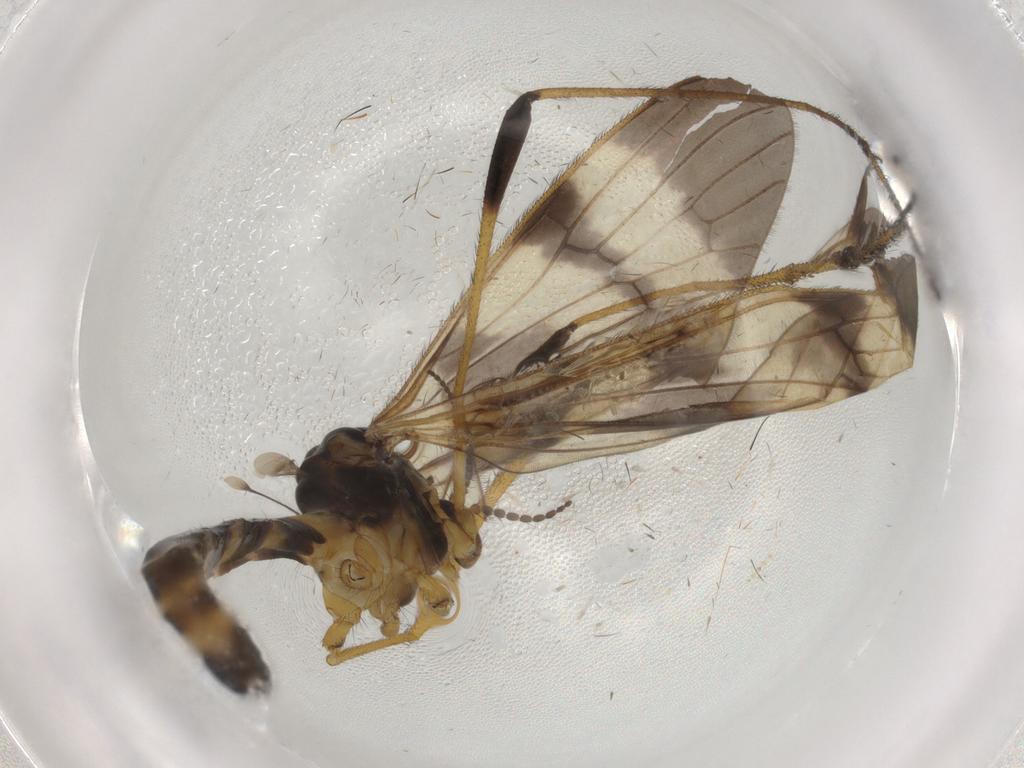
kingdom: Animalia
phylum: Arthropoda
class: Insecta
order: Diptera
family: Limoniidae
